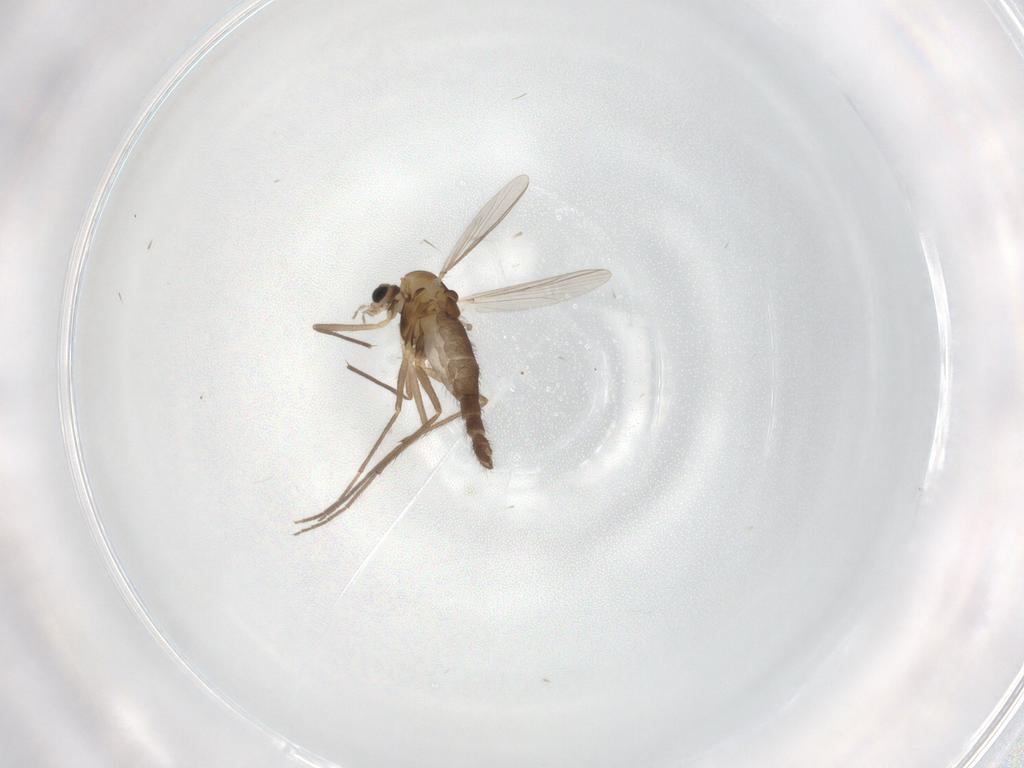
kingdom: Animalia
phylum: Arthropoda
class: Insecta
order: Diptera
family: Chironomidae
